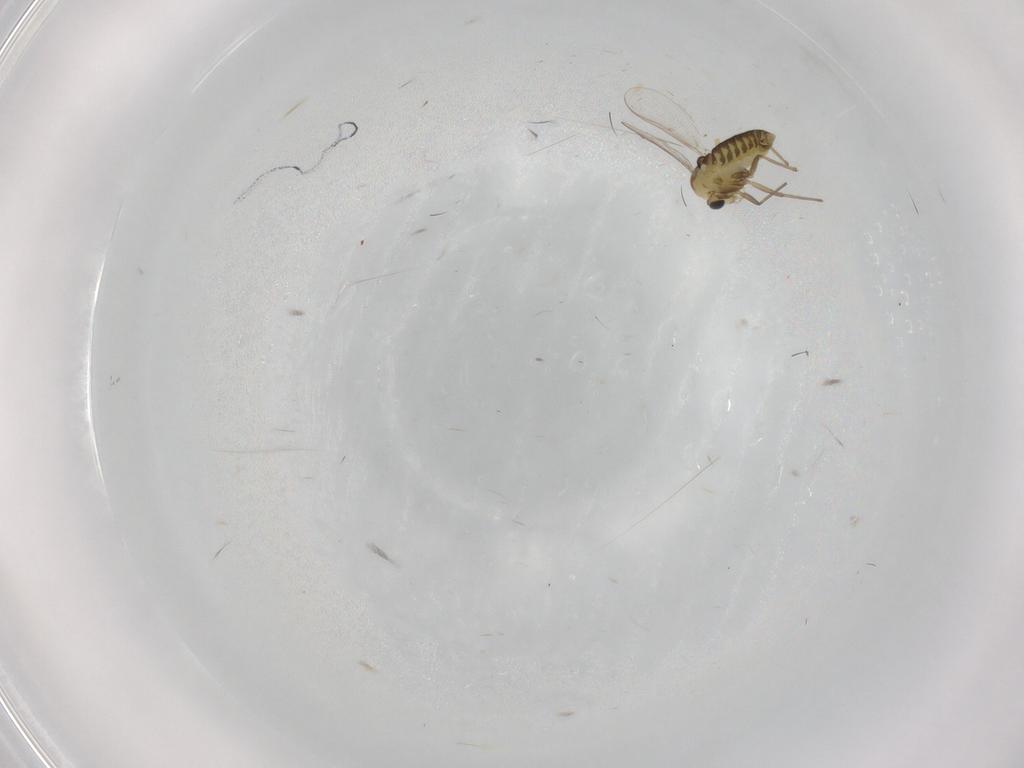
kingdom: Animalia
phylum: Arthropoda
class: Insecta
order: Diptera
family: Chironomidae
